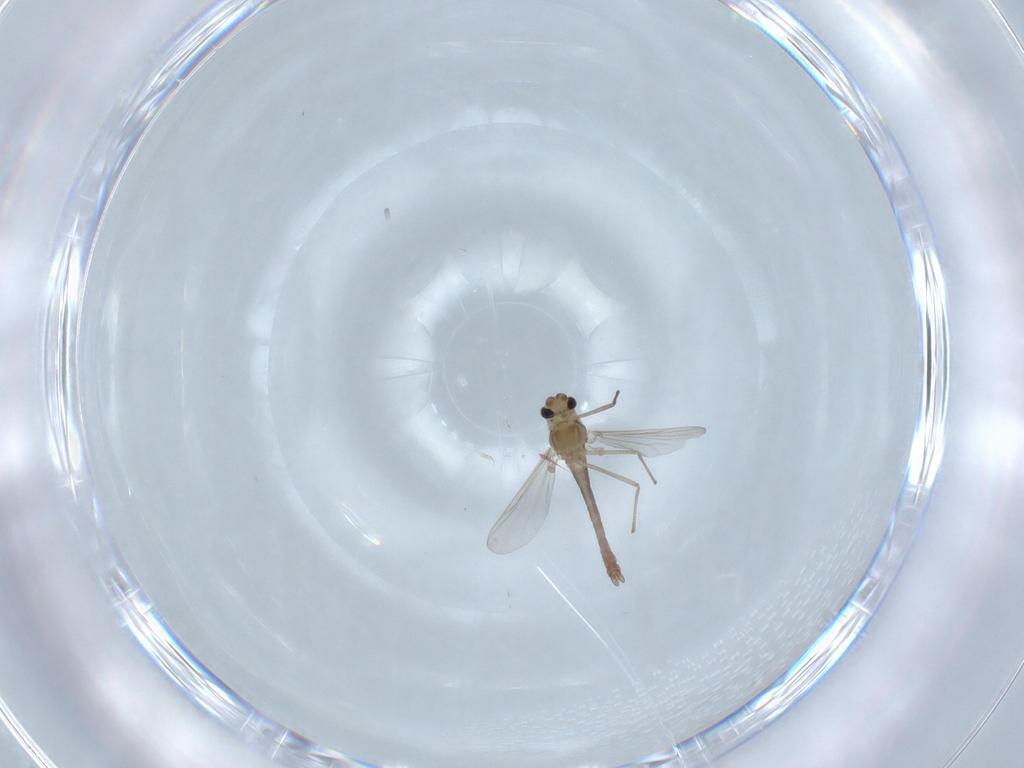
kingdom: Animalia
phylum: Arthropoda
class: Insecta
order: Diptera
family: Chironomidae
